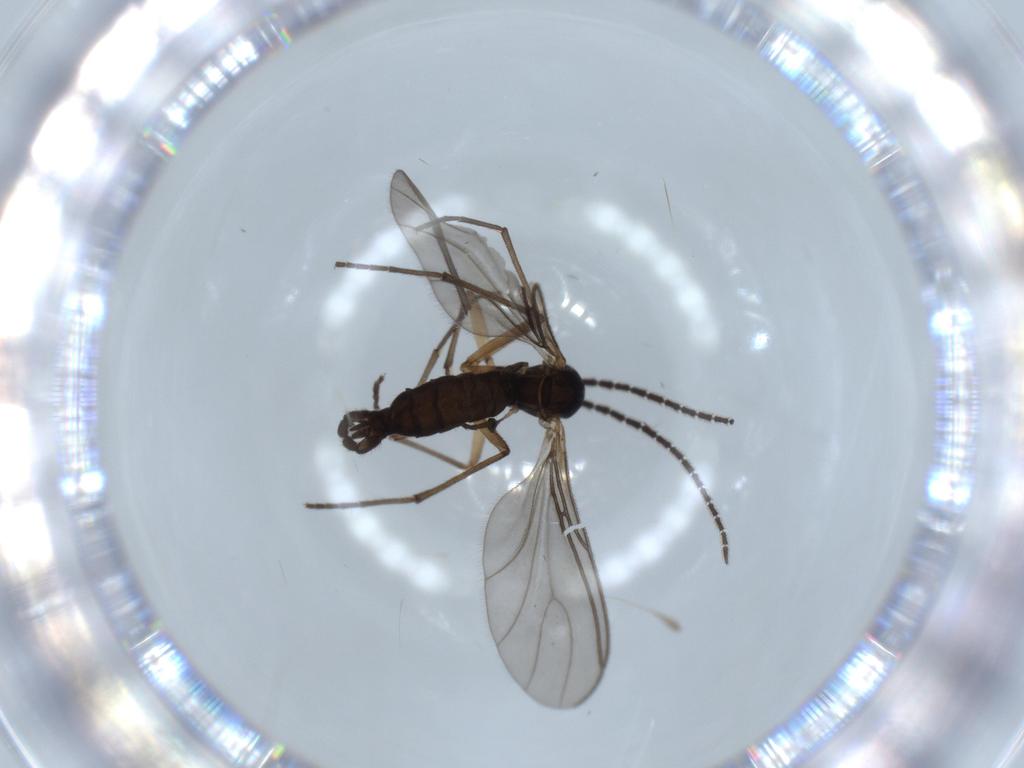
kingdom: Animalia
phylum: Arthropoda
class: Insecta
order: Diptera
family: Sciaridae
